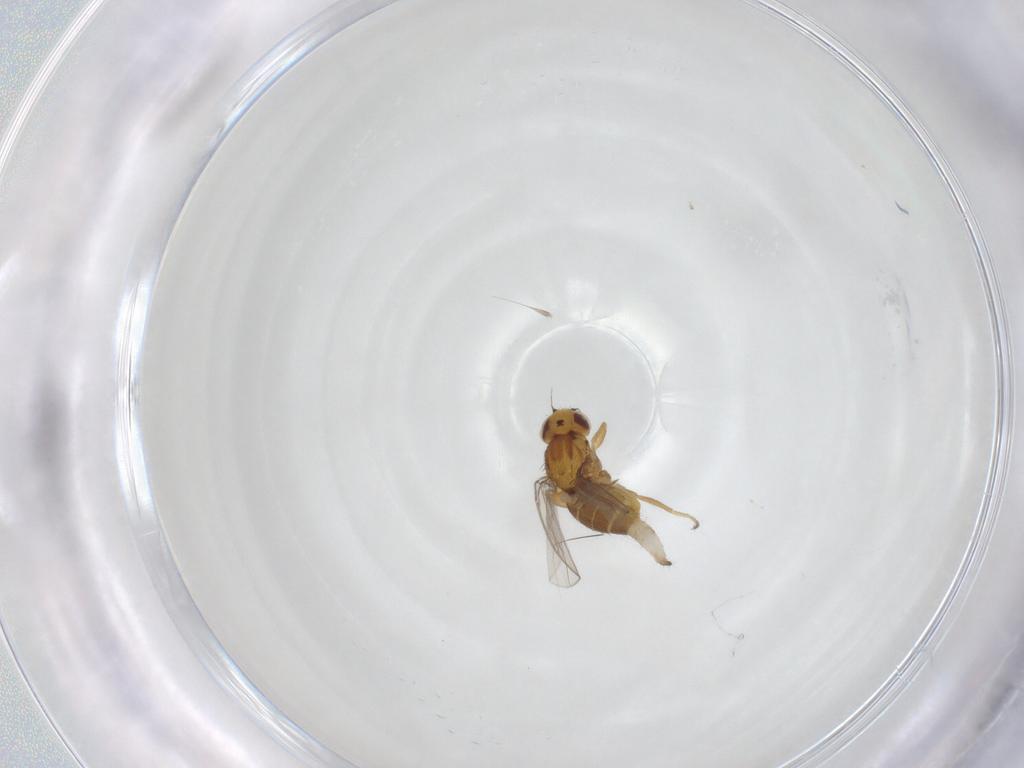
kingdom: Animalia
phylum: Arthropoda
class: Insecta
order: Diptera
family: Chloropidae
